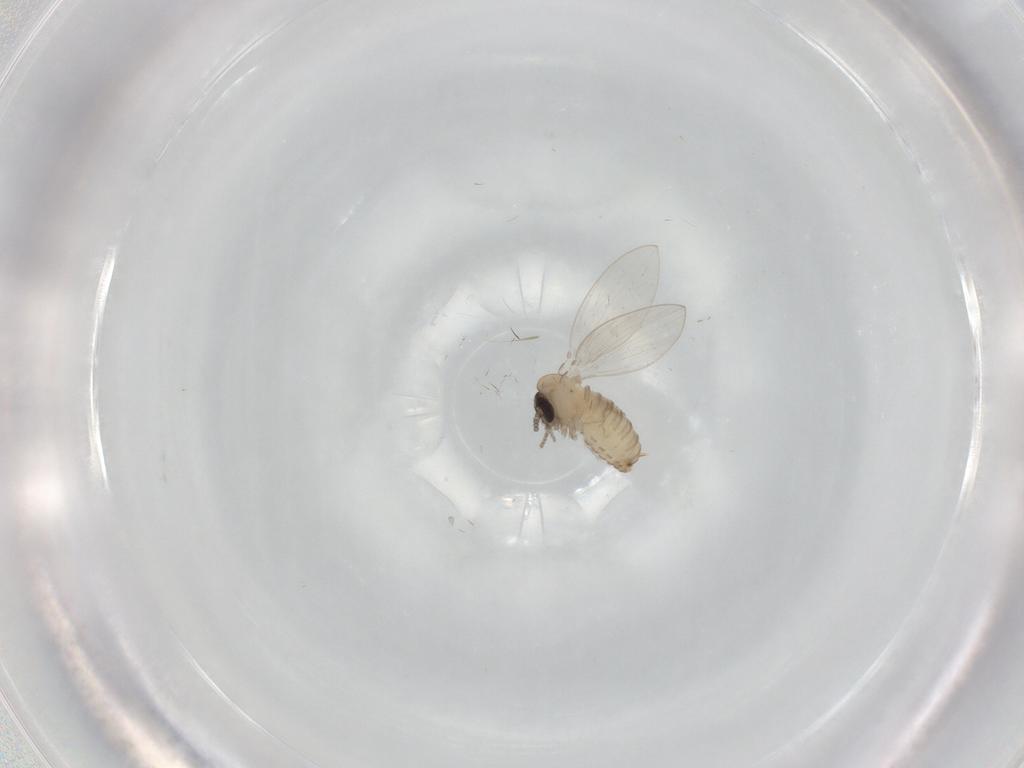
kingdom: Animalia
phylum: Arthropoda
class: Insecta
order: Diptera
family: Psychodidae
